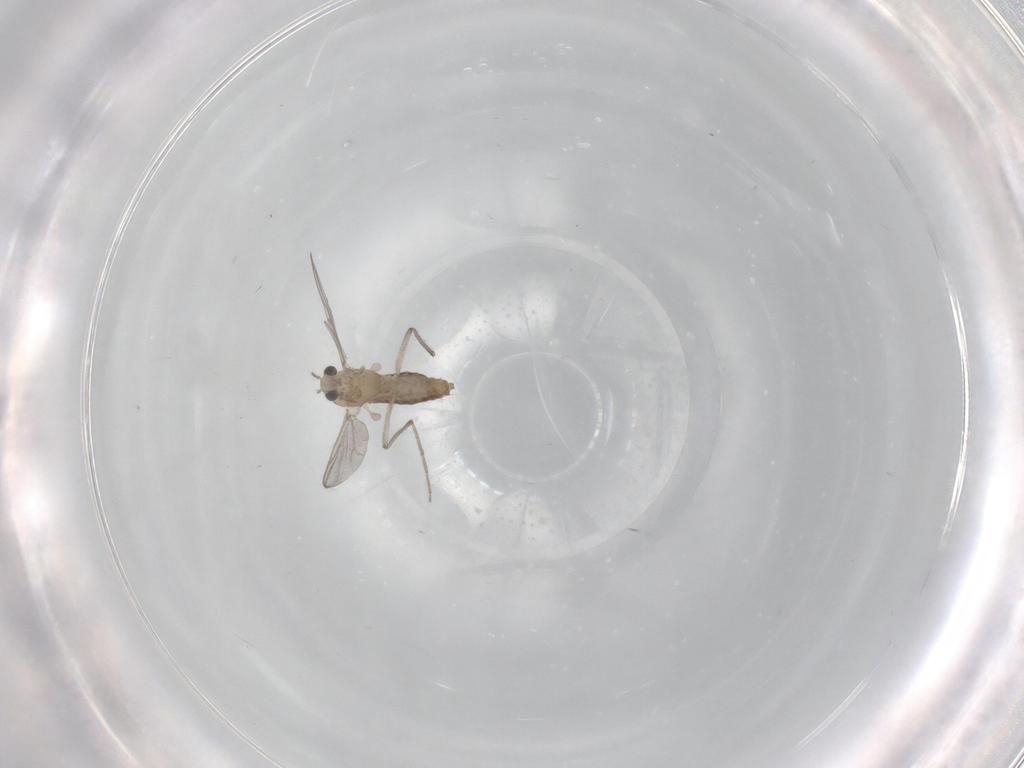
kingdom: Animalia
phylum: Arthropoda
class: Insecta
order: Diptera
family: Chironomidae
